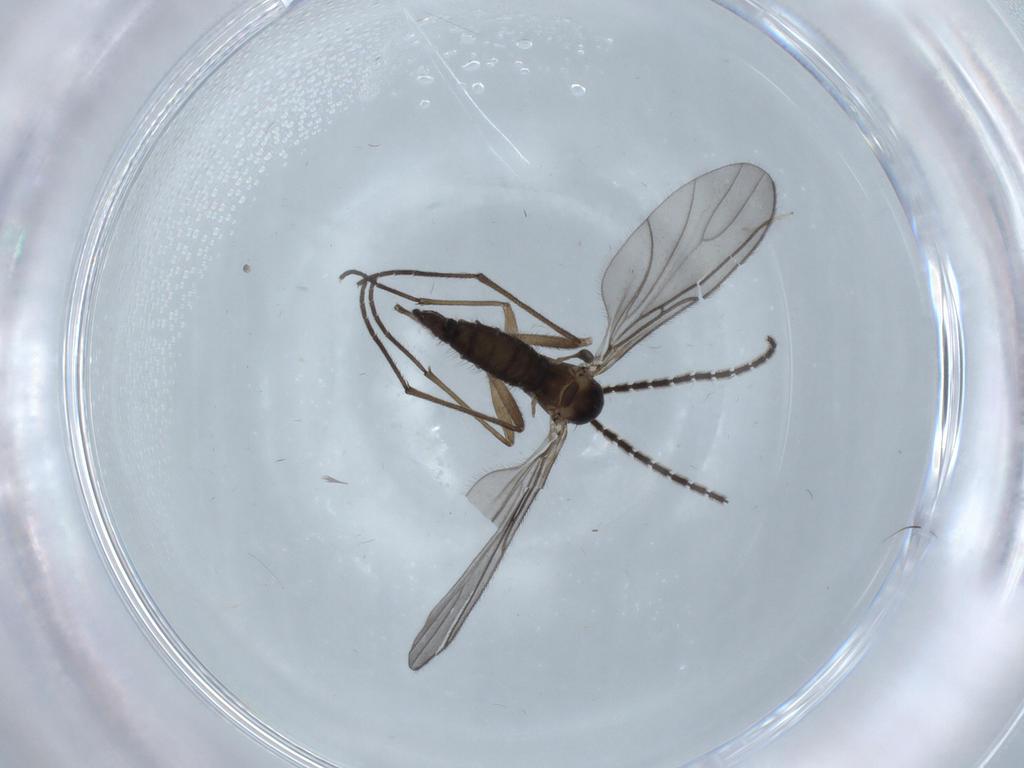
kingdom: Animalia
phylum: Arthropoda
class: Insecta
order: Diptera
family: Sciaridae
